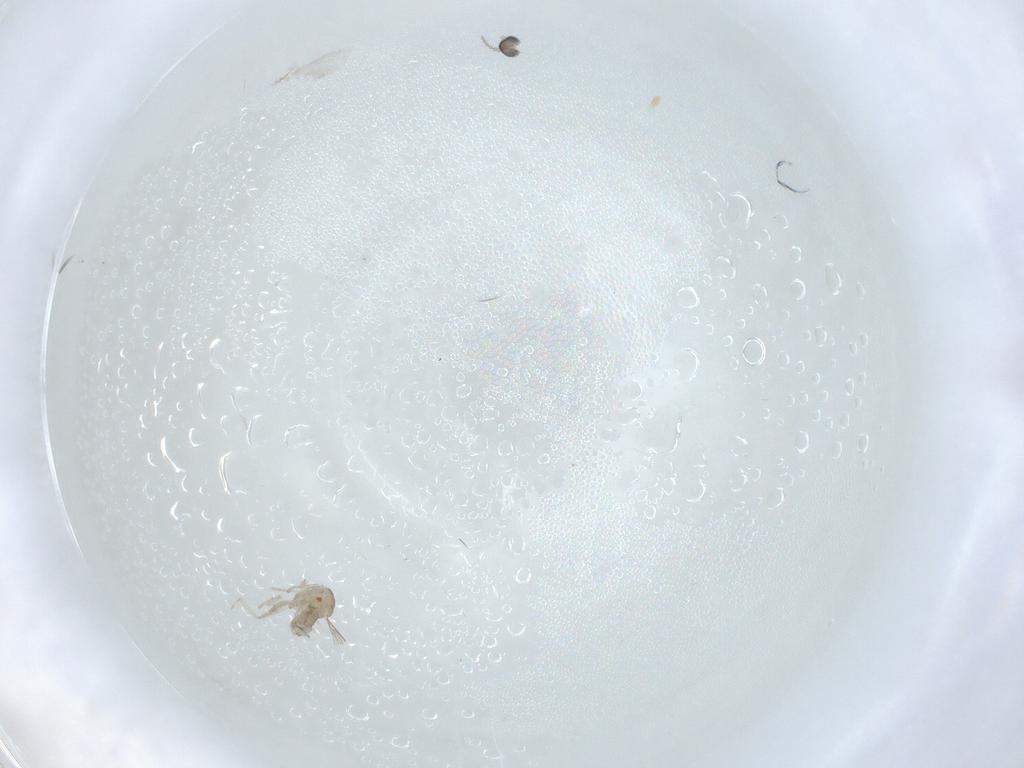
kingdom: Animalia
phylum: Arthropoda
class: Insecta
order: Diptera
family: Cecidomyiidae
